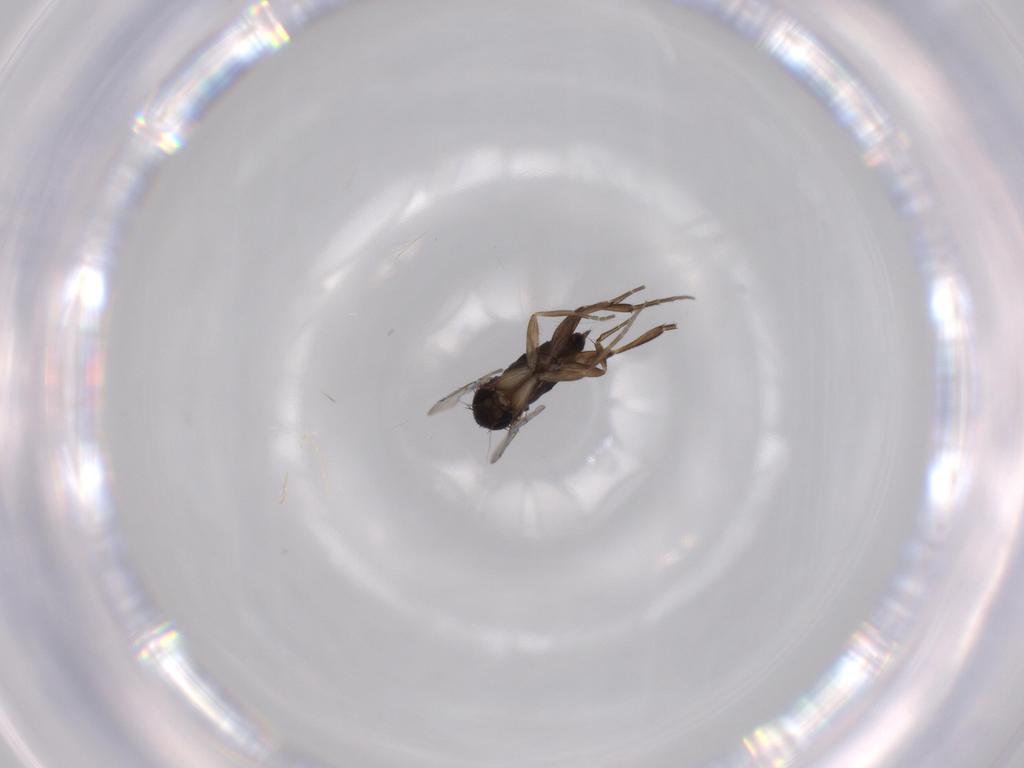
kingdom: Animalia
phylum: Arthropoda
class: Insecta
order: Diptera
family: Phoridae
